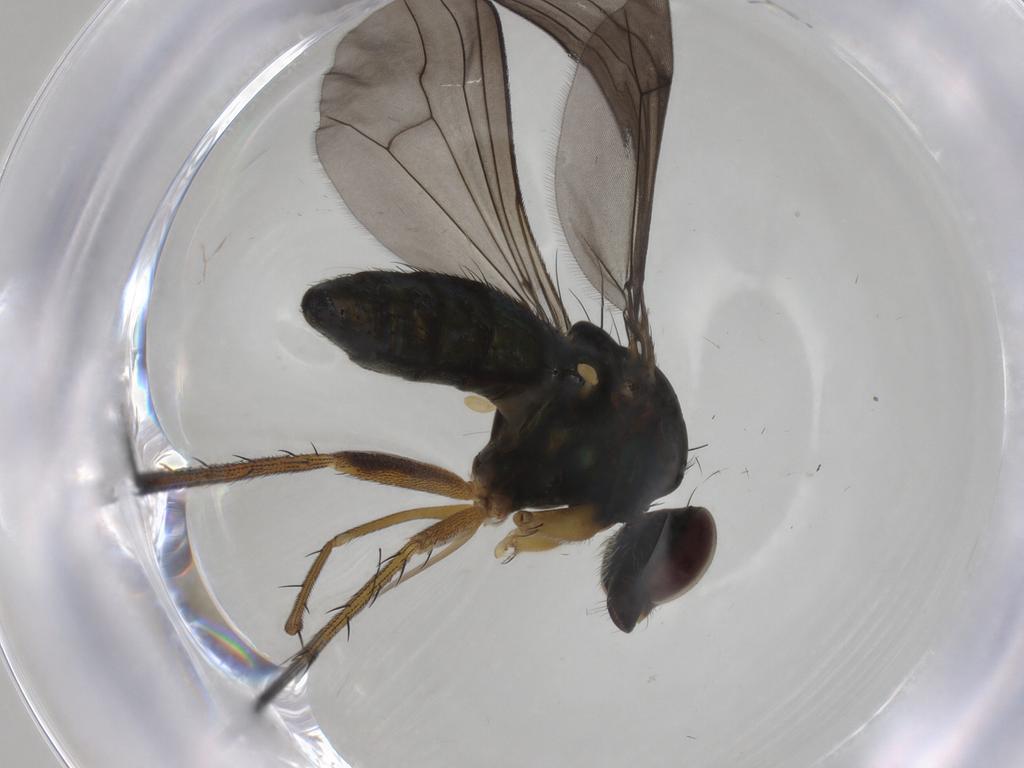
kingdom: Animalia
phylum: Arthropoda
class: Insecta
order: Diptera
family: Dolichopodidae
